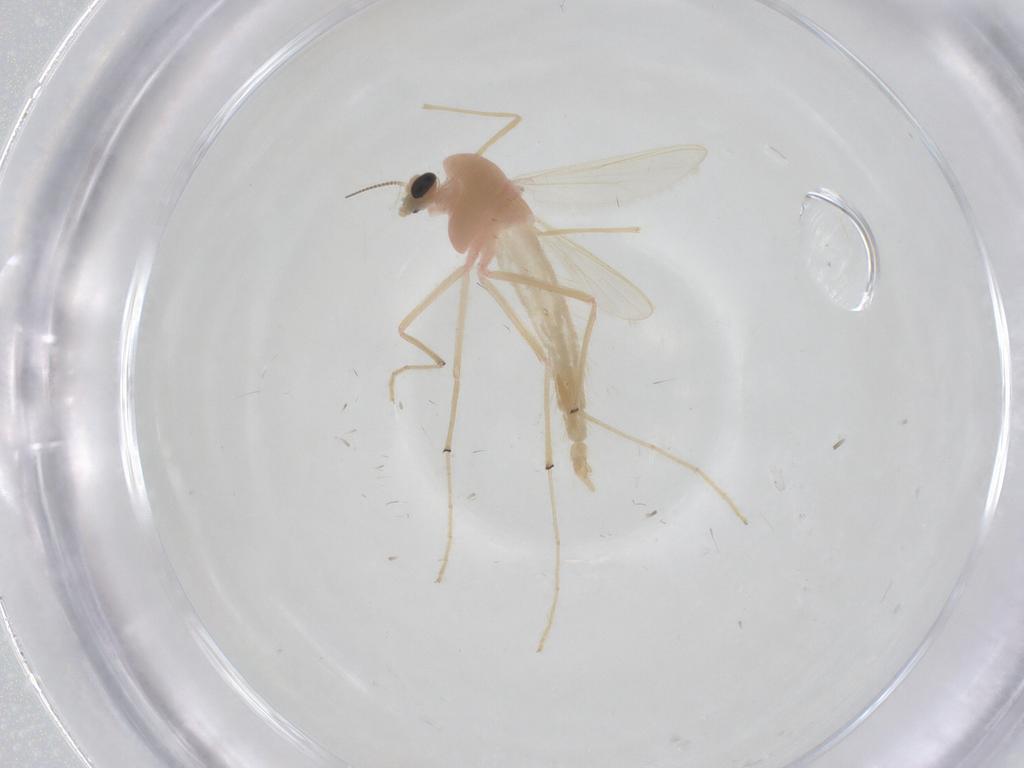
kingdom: Animalia
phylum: Arthropoda
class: Insecta
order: Diptera
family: Chironomidae
